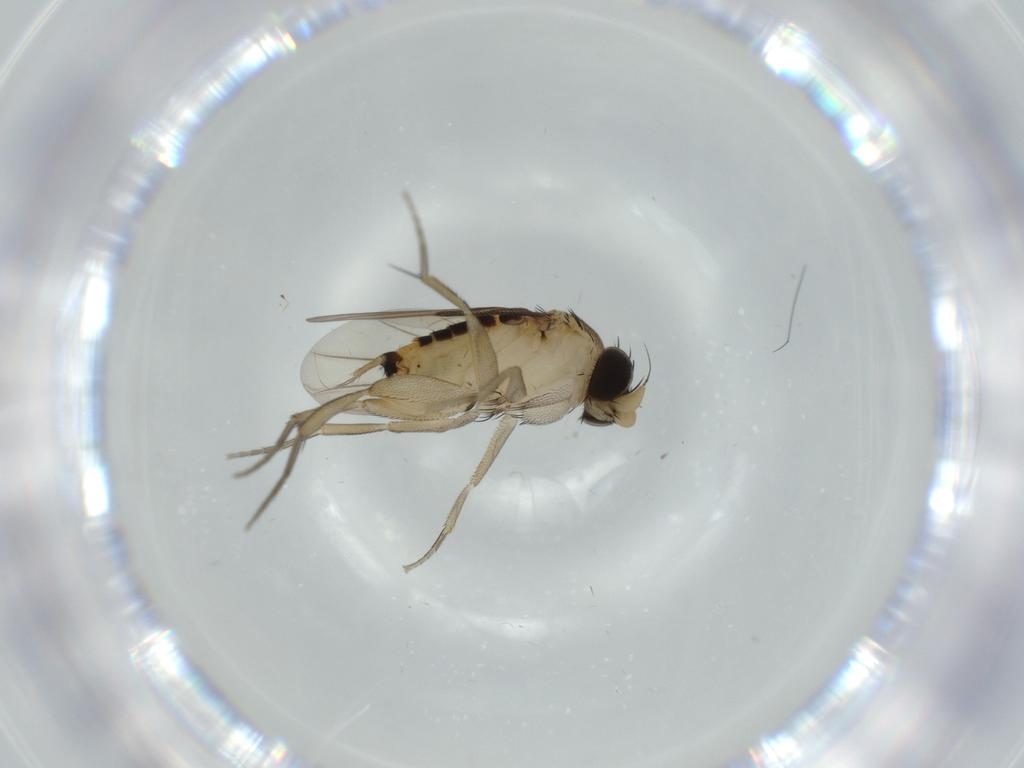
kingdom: Animalia
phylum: Arthropoda
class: Insecta
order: Diptera
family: Phoridae
